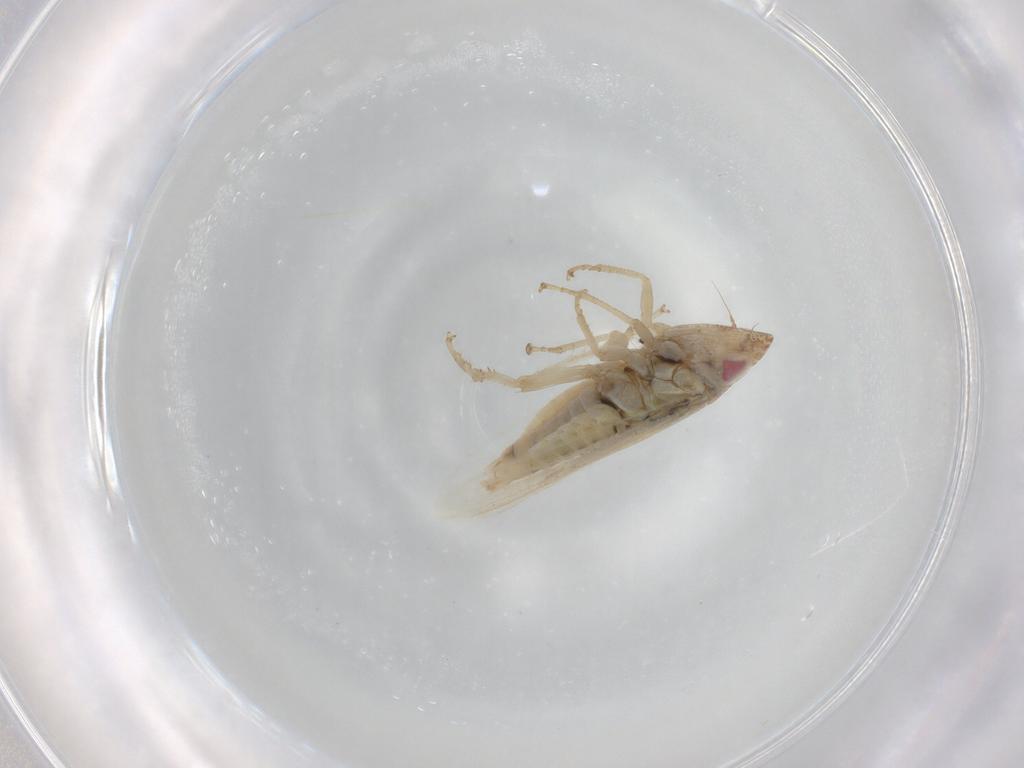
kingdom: Animalia
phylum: Arthropoda
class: Insecta
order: Hemiptera
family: Cicadellidae
